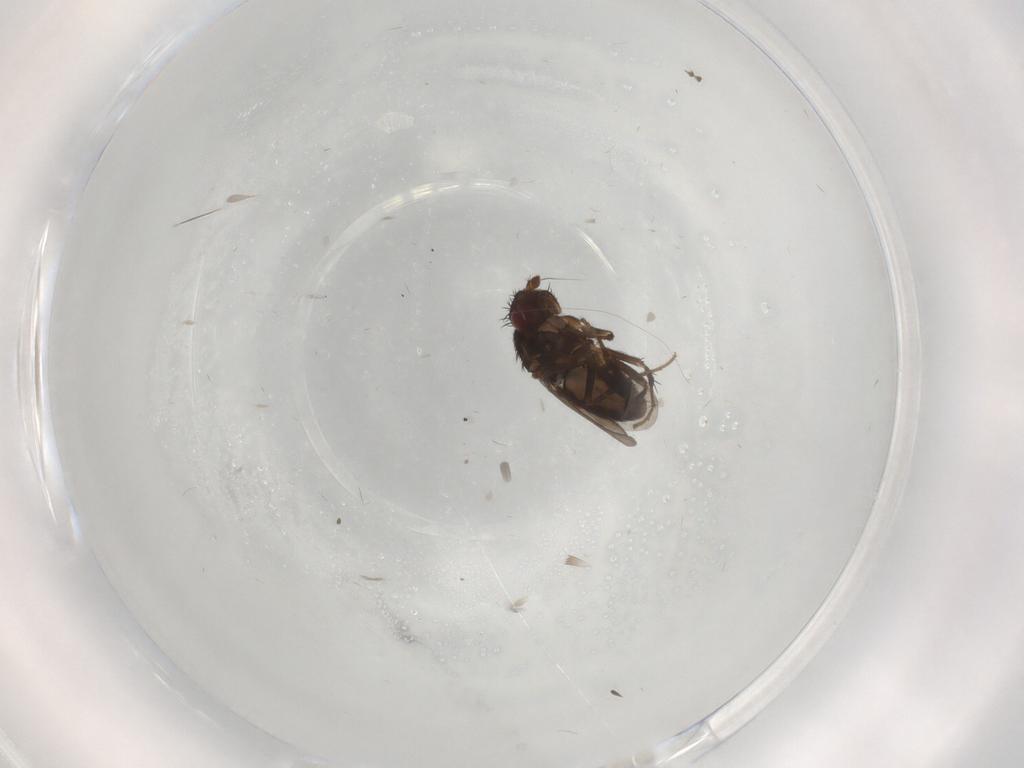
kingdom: Animalia
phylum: Arthropoda
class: Insecta
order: Diptera
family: Sphaeroceridae
